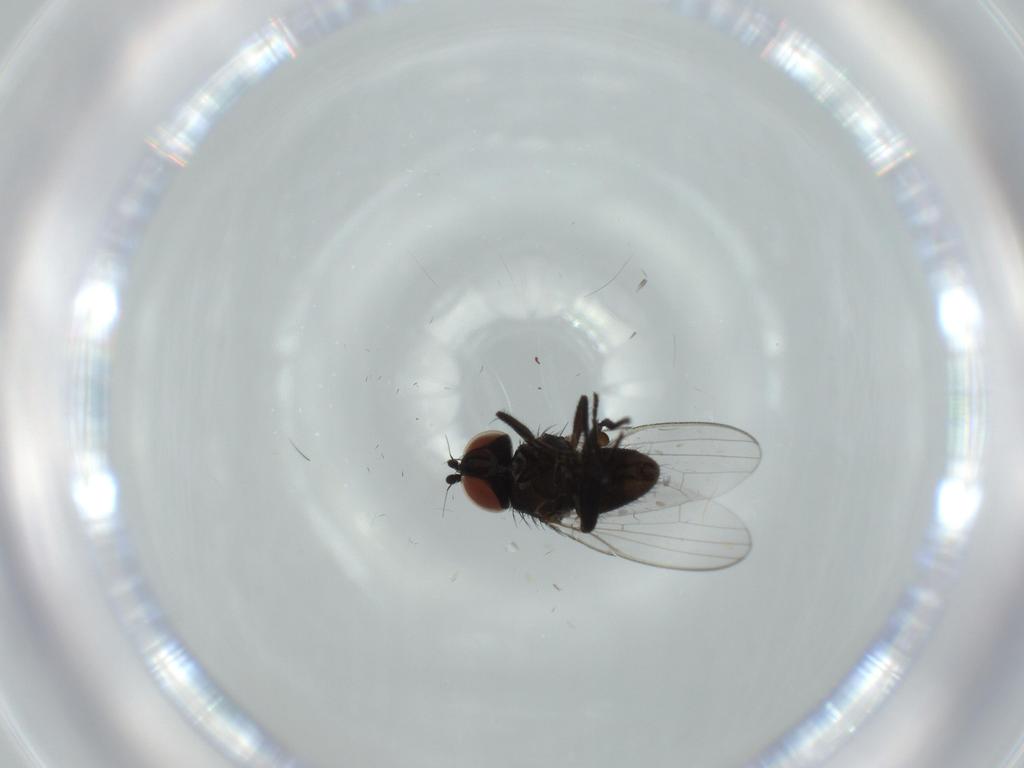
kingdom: Animalia
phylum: Arthropoda
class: Insecta
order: Diptera
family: Milichiidae
